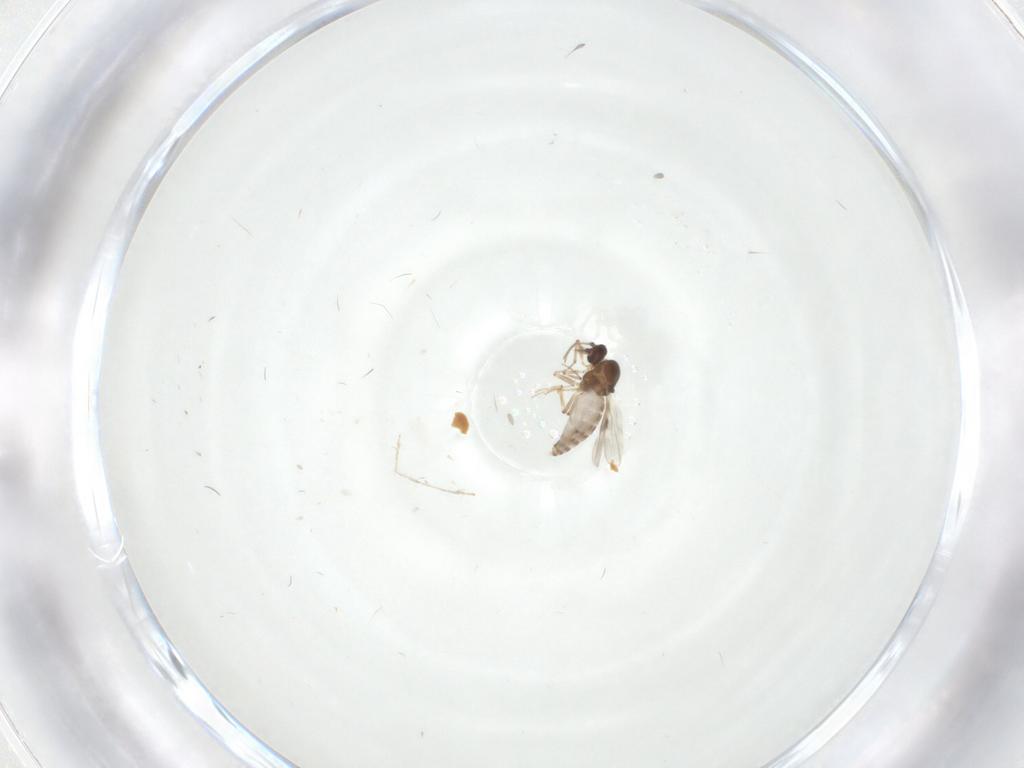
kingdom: Animalia
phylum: Arthropoda
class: Insecta
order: Diptera
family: Drosophilidae
